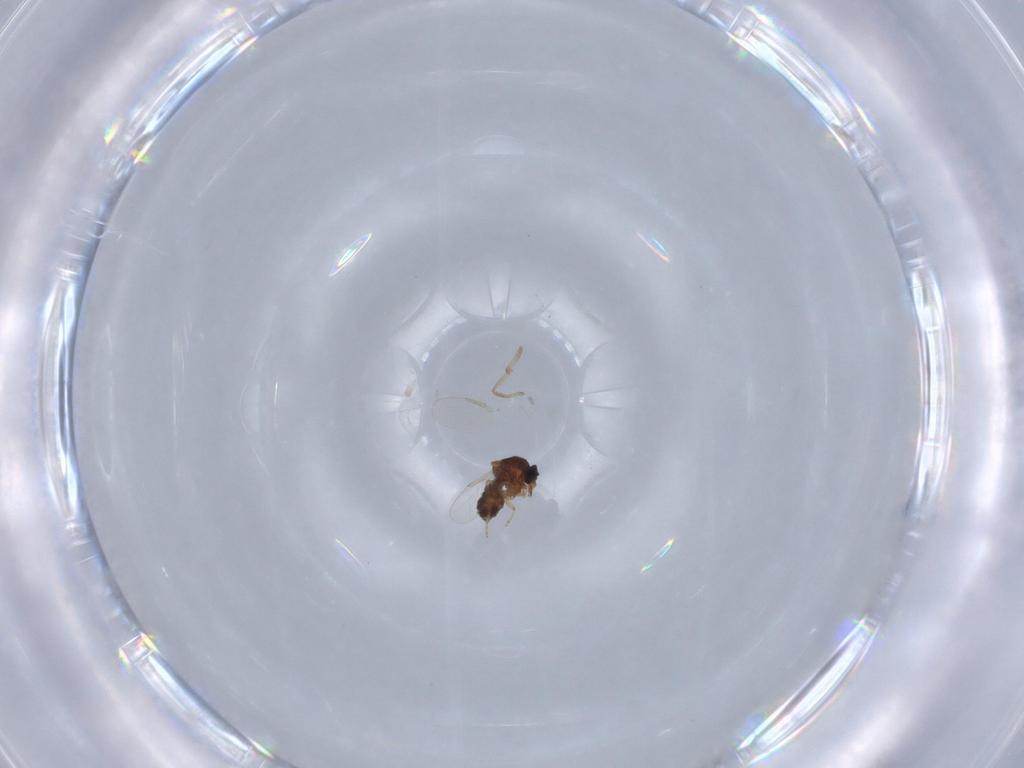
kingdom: Animalia
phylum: Arthropoda
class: Insecta
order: Diptera
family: Ceratopogonidae
